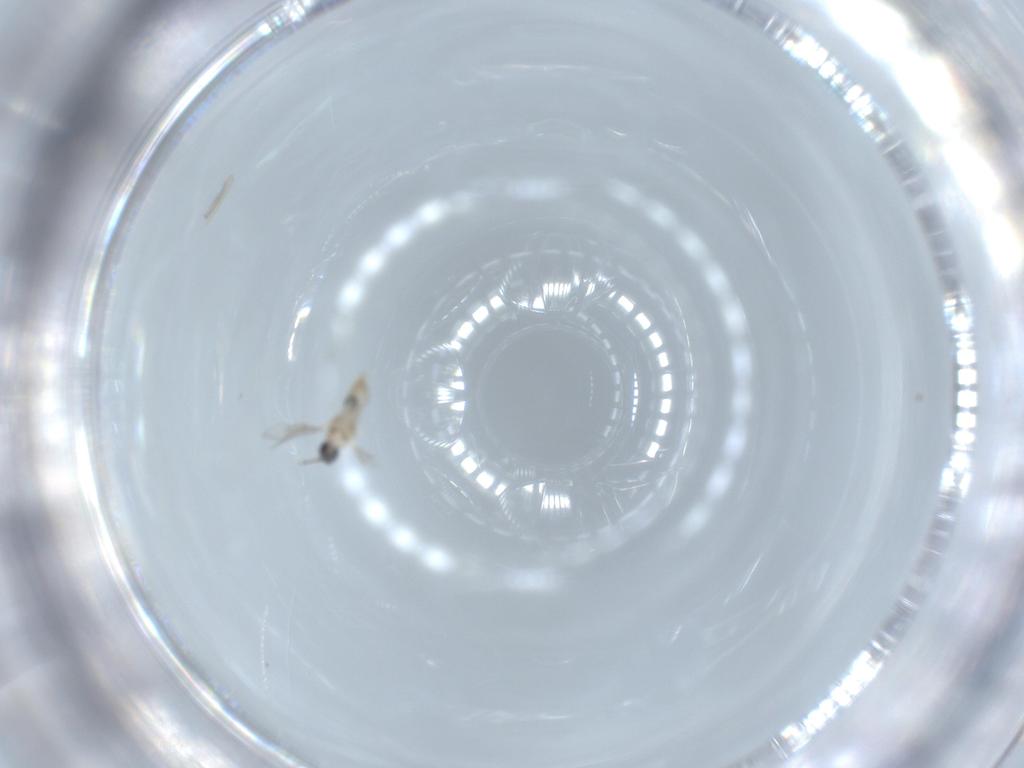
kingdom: Animalia
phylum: Arthropoda
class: Insecta
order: Diptera
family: Cecidomyiidae
